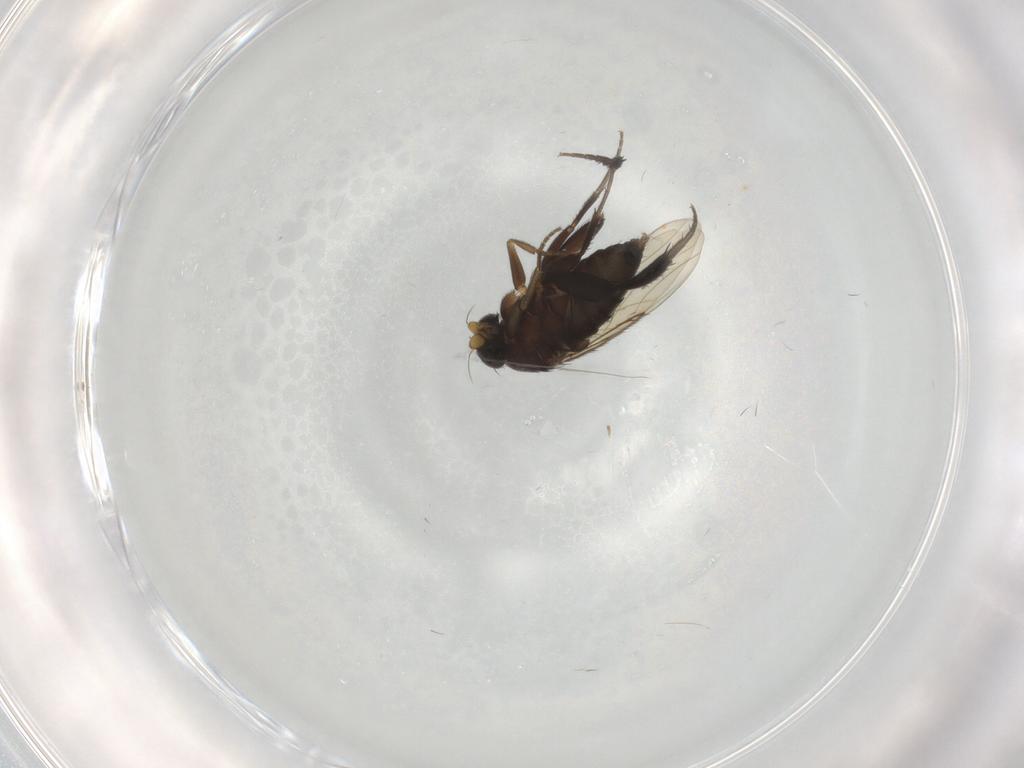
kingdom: Animalia
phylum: Arthropoda
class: Insecta
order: Diptera
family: Phoridae
